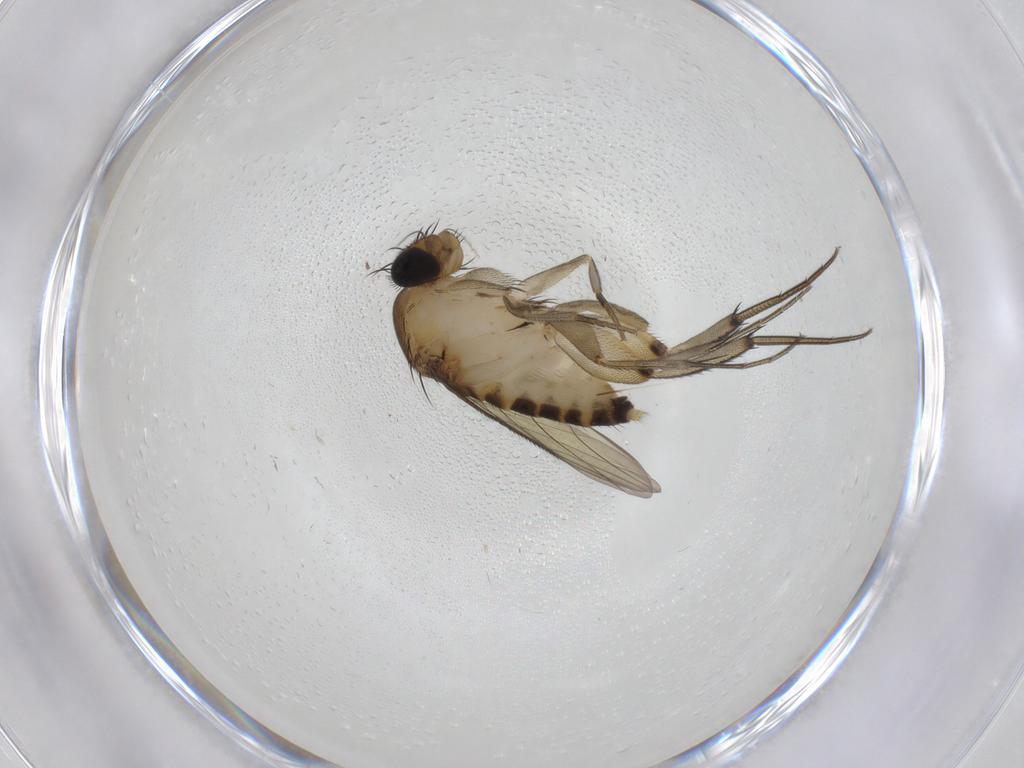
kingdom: Animalia
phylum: Arthropoda
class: Insecta
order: Diptera
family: Phoridae
